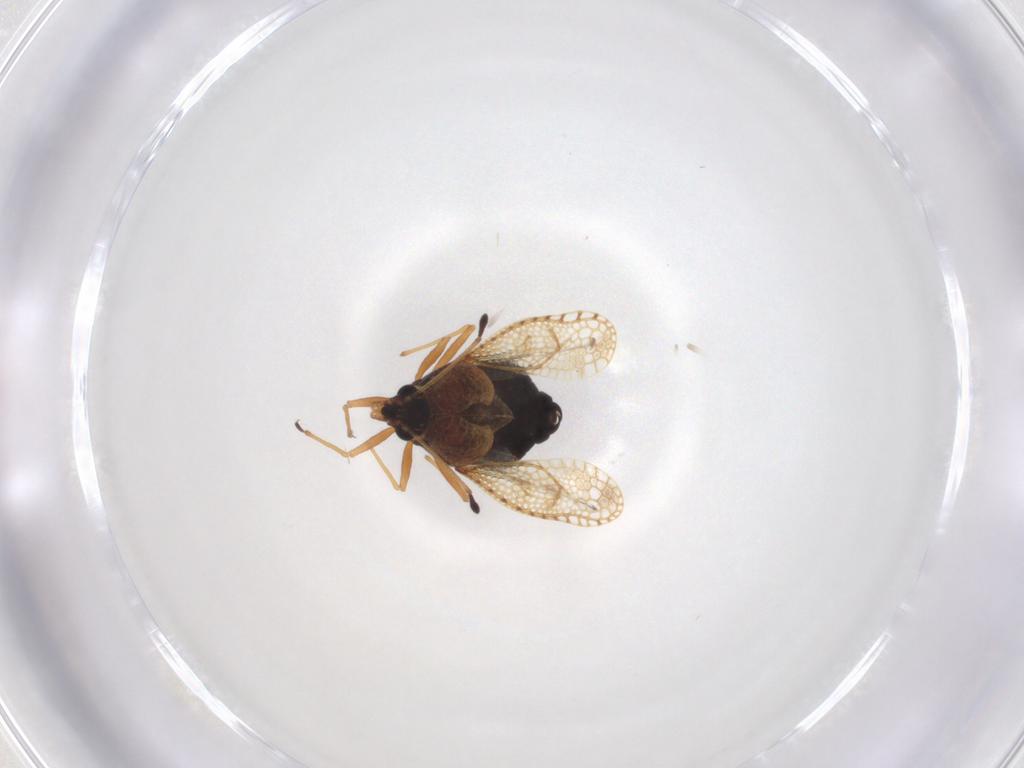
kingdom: Animalia
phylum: Arthropoda
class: Insecta
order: Hemiptera
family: Tingidae
